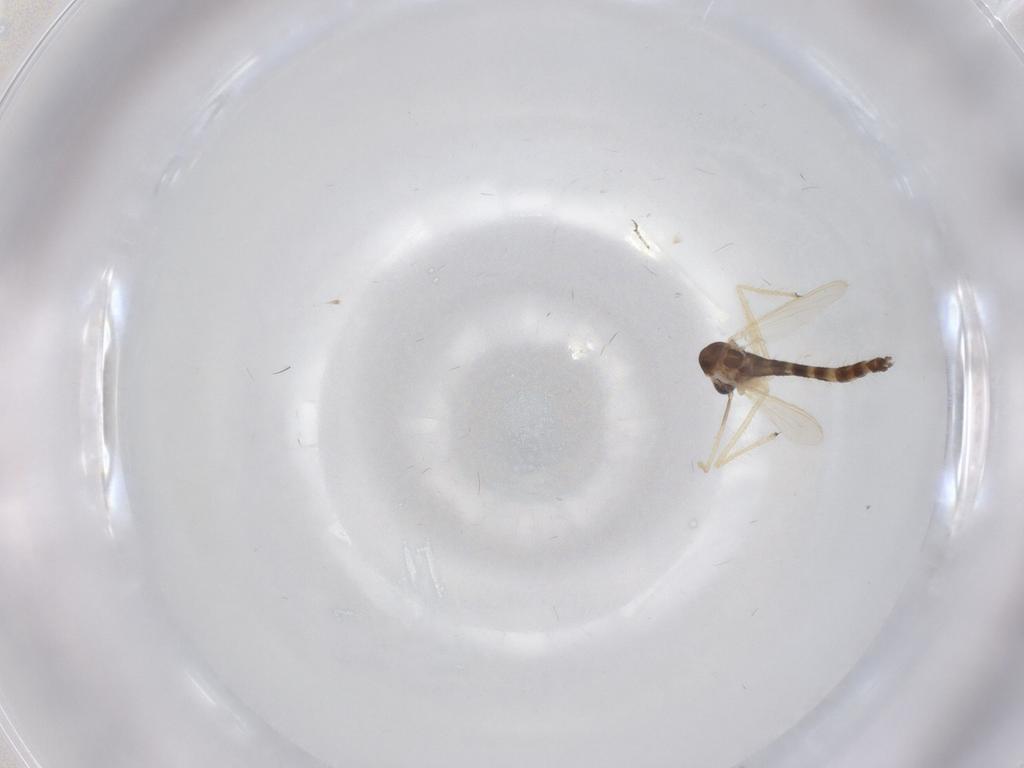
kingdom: Animalia
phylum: Arthropoda
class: Insecta
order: Diptera
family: Chironomidae
